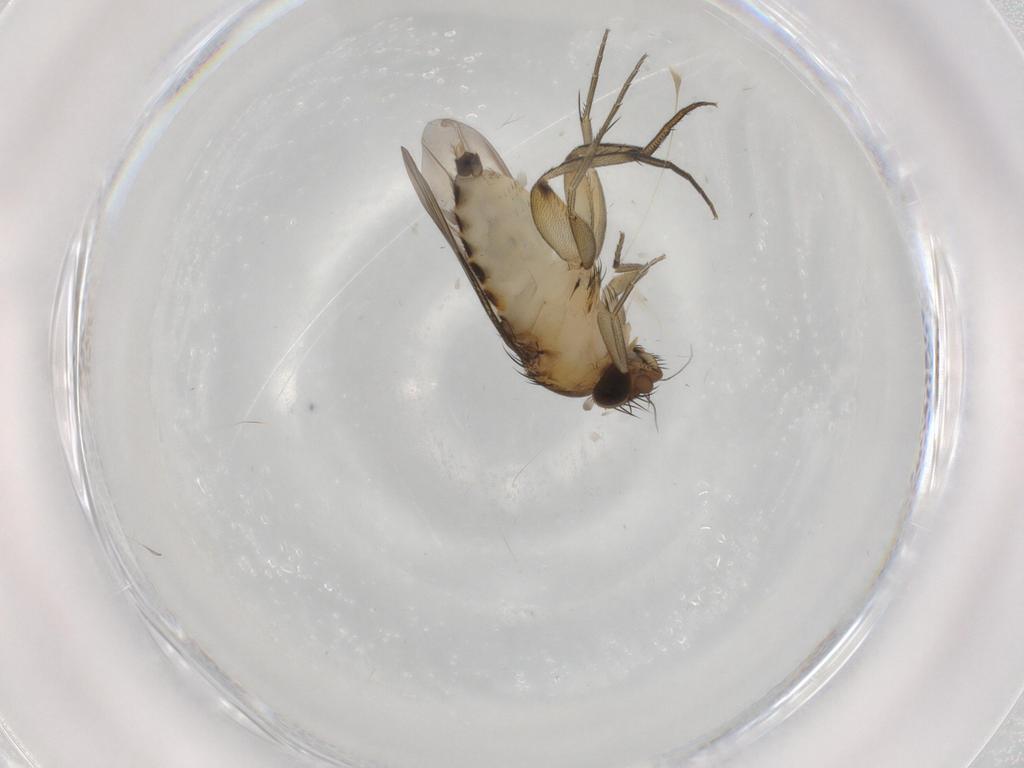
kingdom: Animalia
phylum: Arthropoda
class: Insecta
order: Diptera
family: Phoridae
